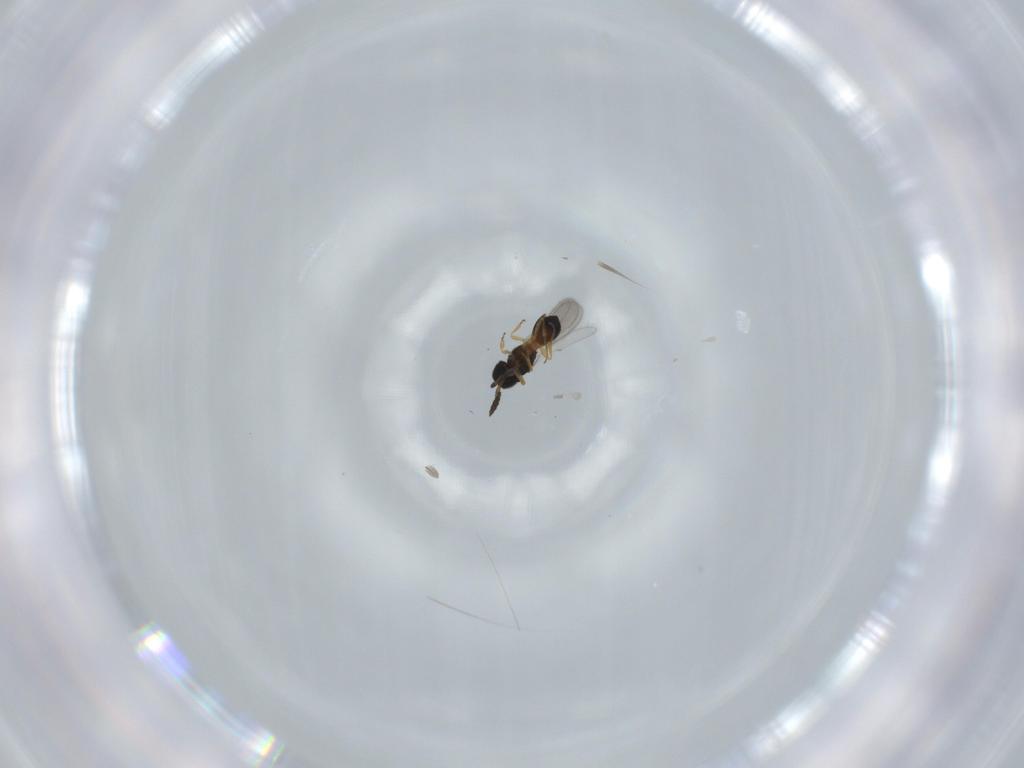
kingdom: Animalia
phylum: Arthropoda
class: Insecta
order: Hymenoptera
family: Scelionidae
